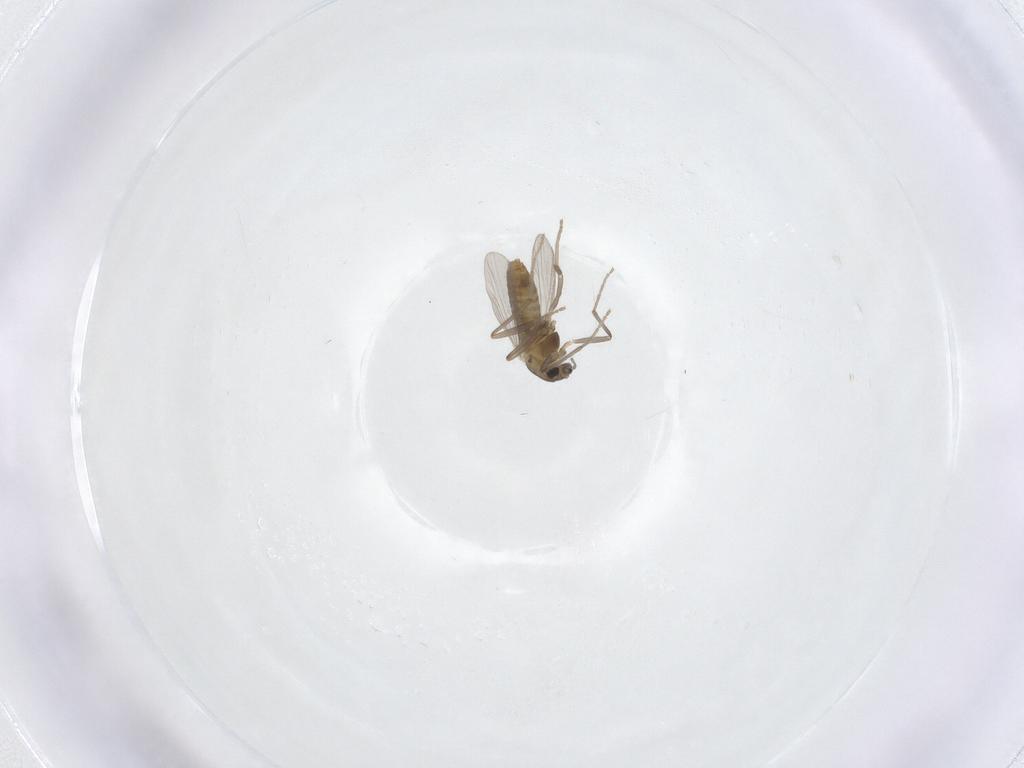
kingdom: Animalia
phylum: Arthropoda
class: Insecta
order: Diptera
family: Chironomidae
